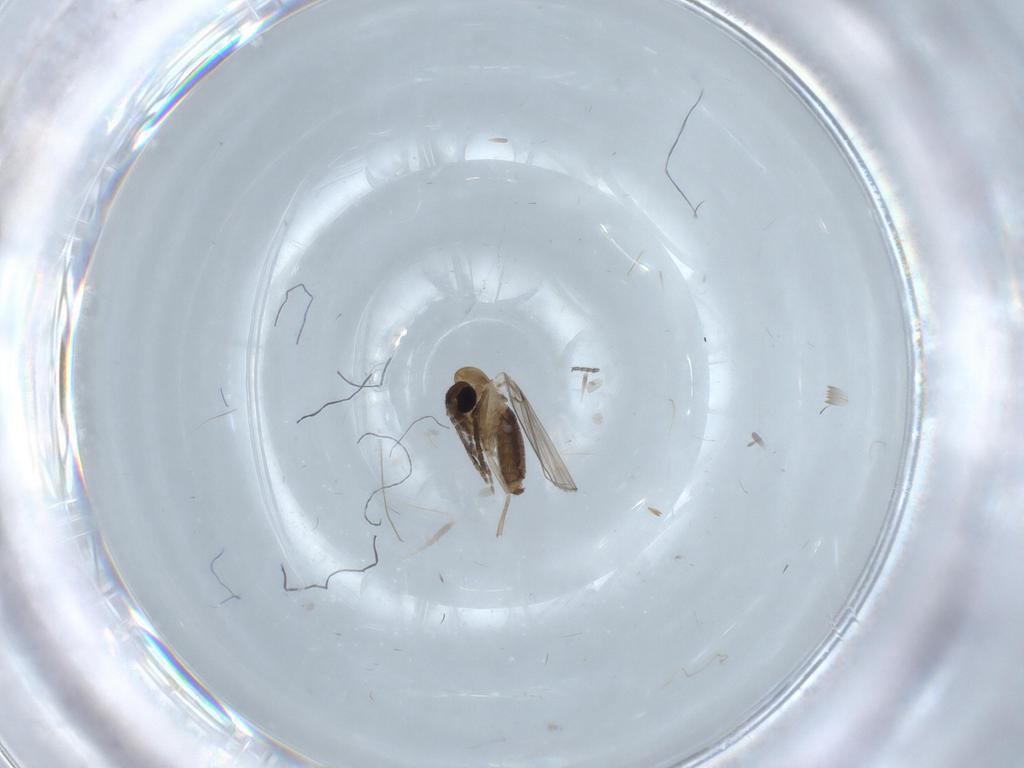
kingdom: Animalia
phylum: Arthropoda
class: Insecta
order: Diptera
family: Psychodidae
